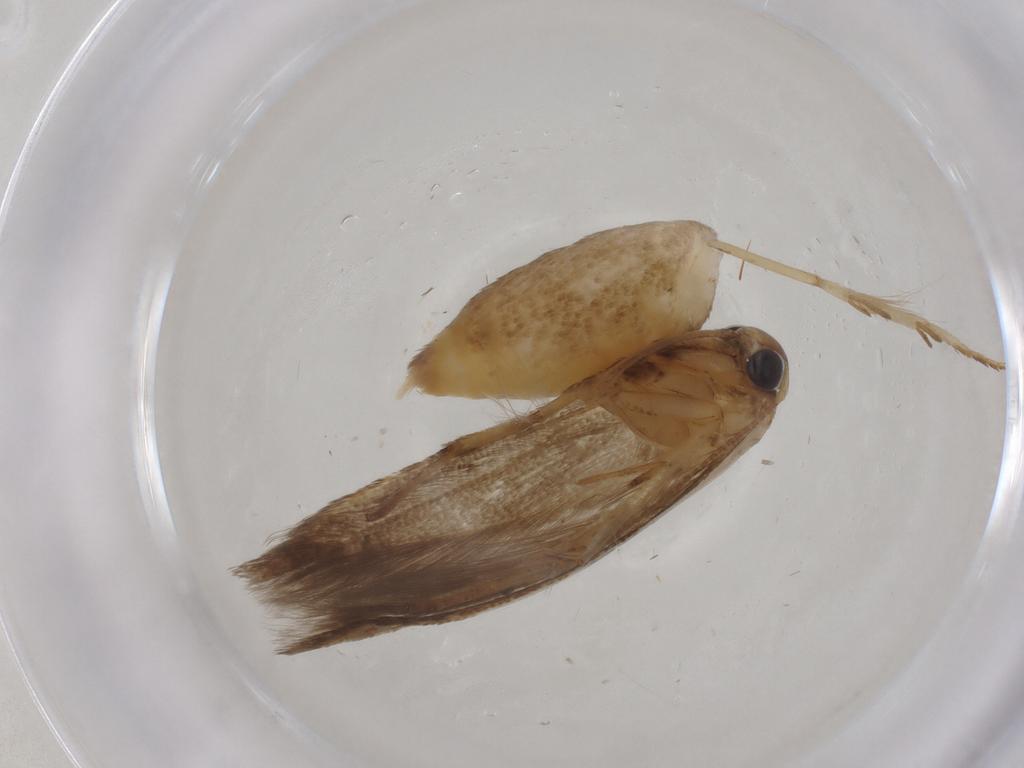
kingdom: Animalia
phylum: Arthropoda
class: Insecta
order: Lepidoptera
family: Blastobasidae
